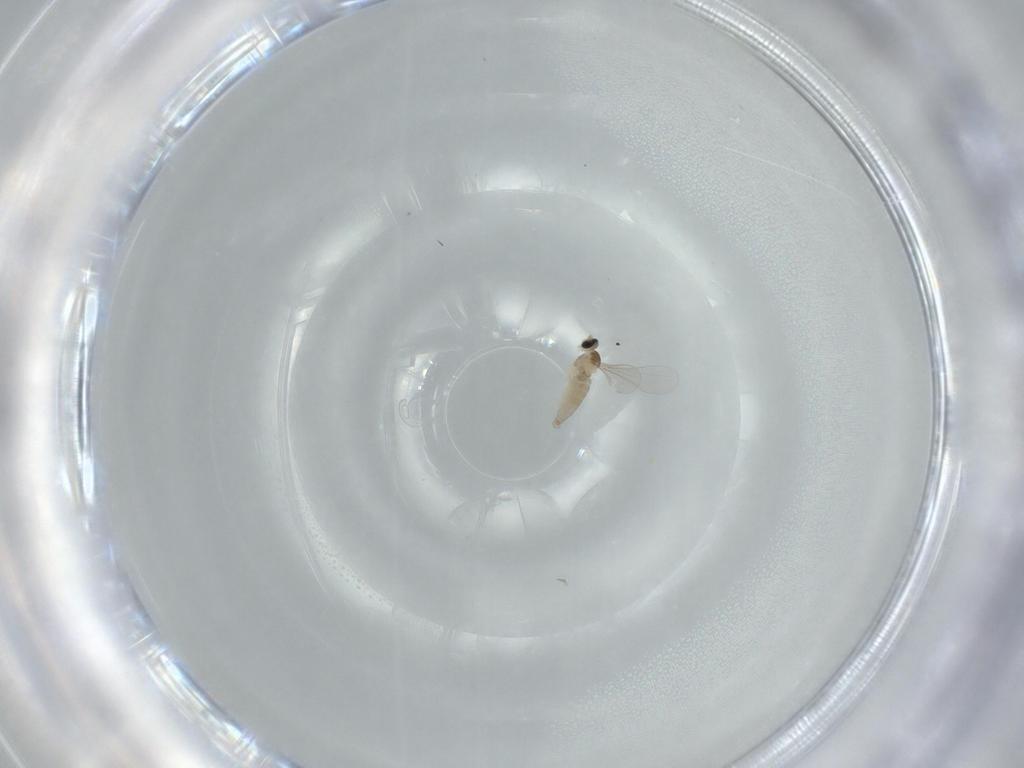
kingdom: Animalia
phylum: Arthropoda
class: Insecta
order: Diptera
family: Sciaridae
